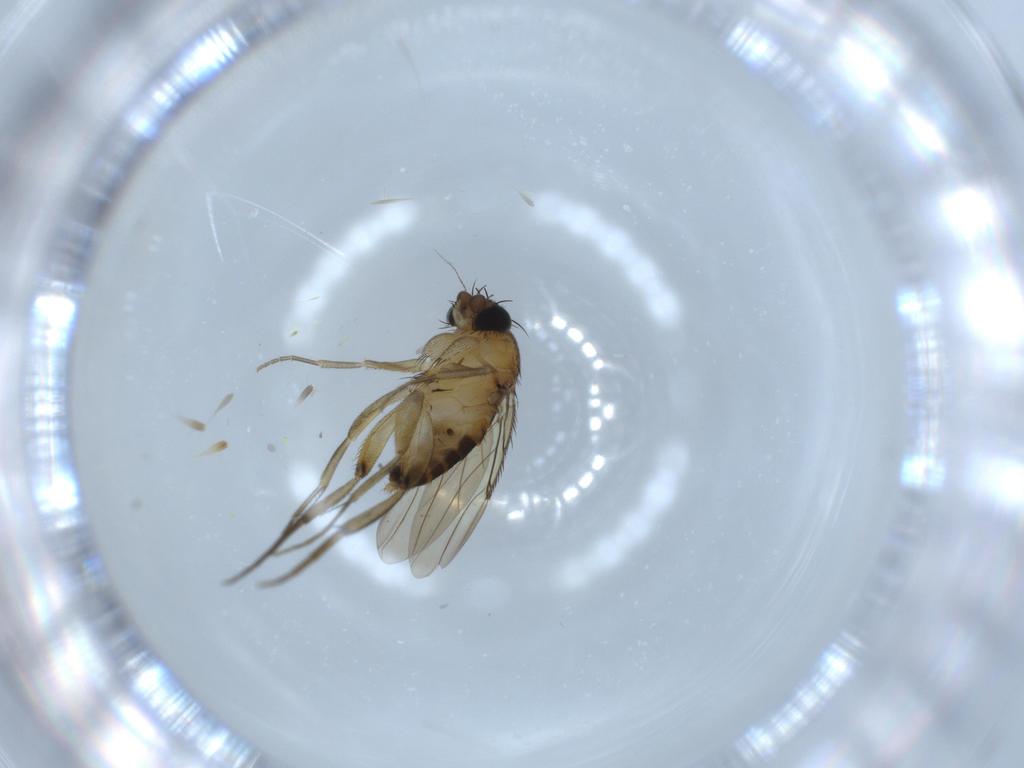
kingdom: Animalia
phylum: Arthropoda
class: Insecta
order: Diptera
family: Phoridae
